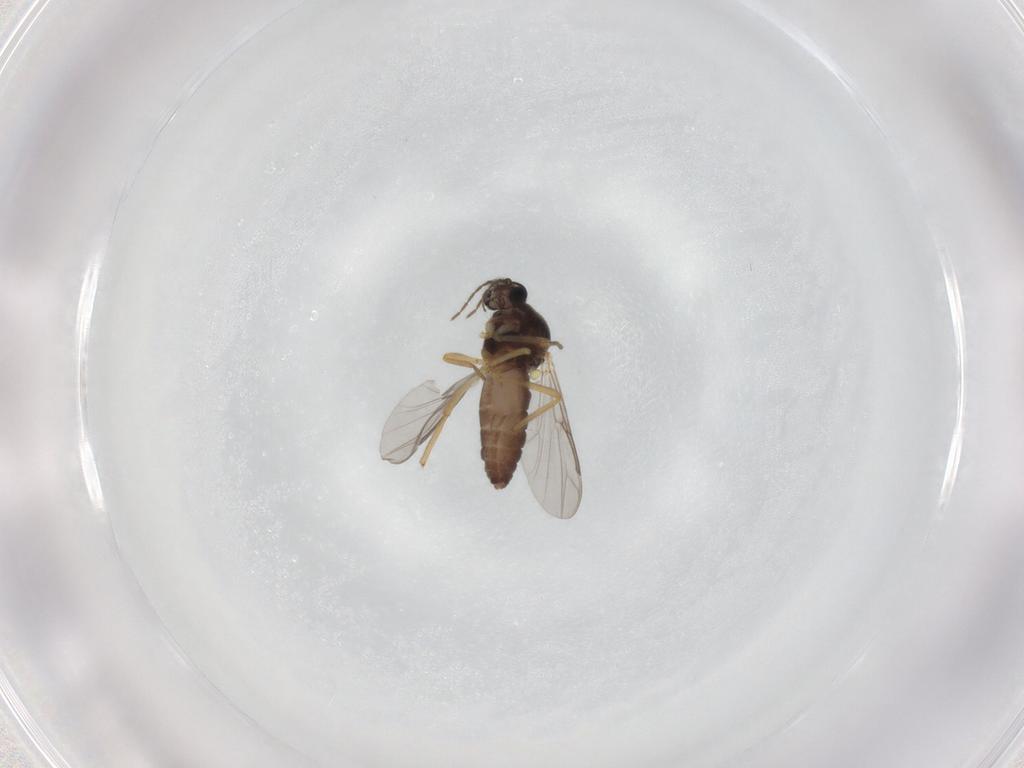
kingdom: Animalia
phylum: Arthropoda
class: Insecta
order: Diptera
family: Ceratopogonidae
